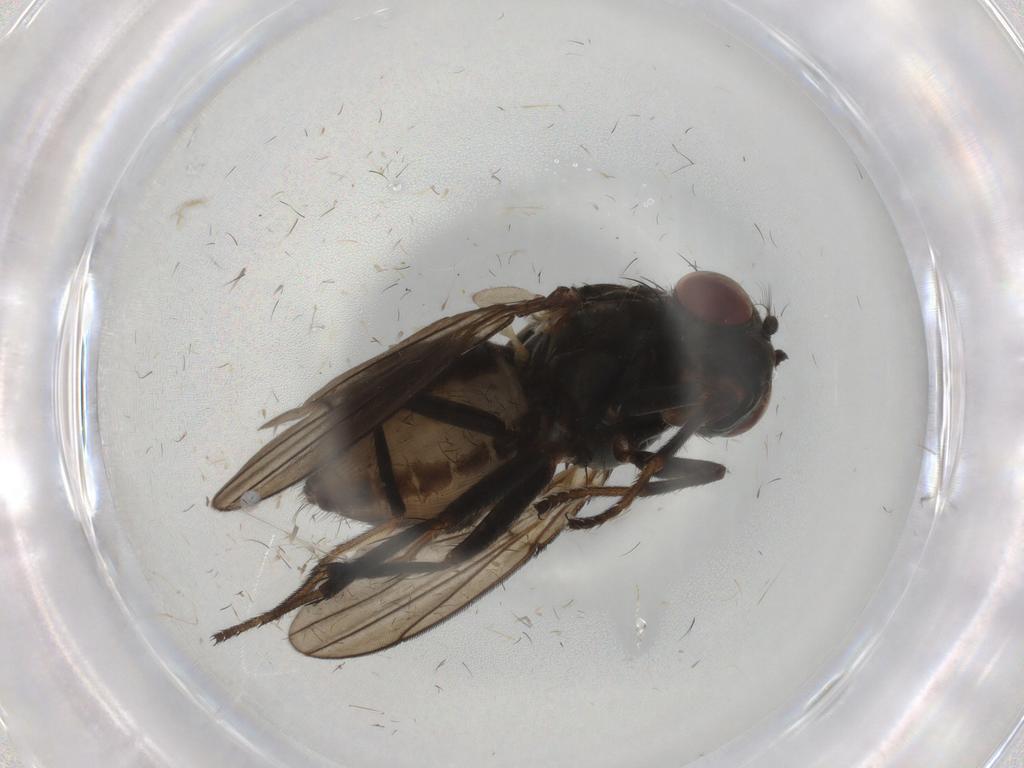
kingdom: Animalia
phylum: Arthropoda
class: Insecta
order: Diptera
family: Ephydridae
